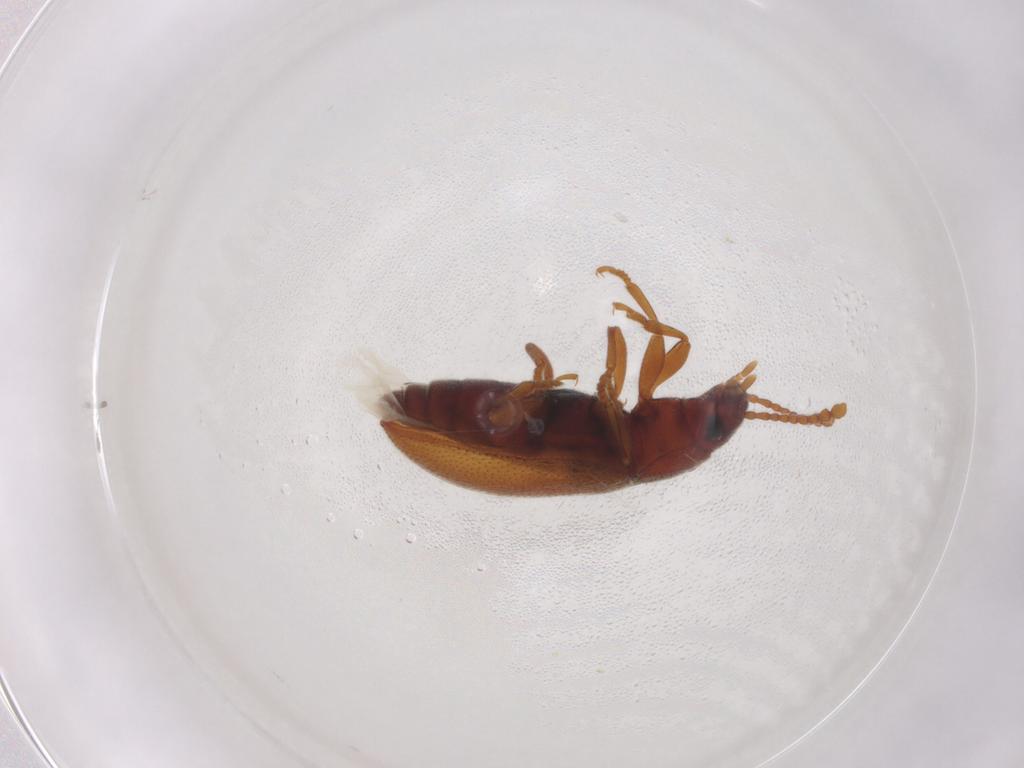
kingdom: Animalia
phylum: Arthropoda
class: Insecta
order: Coleoptera
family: Tenebrionidae
